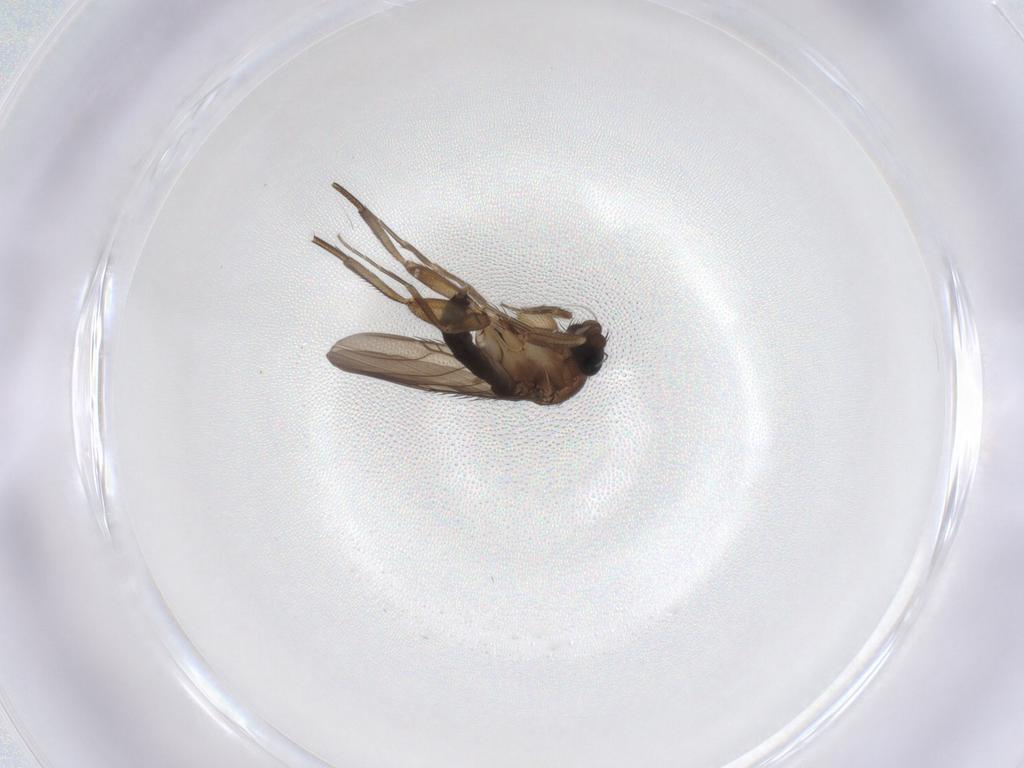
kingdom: Animalia
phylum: Arthropoda
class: Insecta
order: Diptera
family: Phoridae
